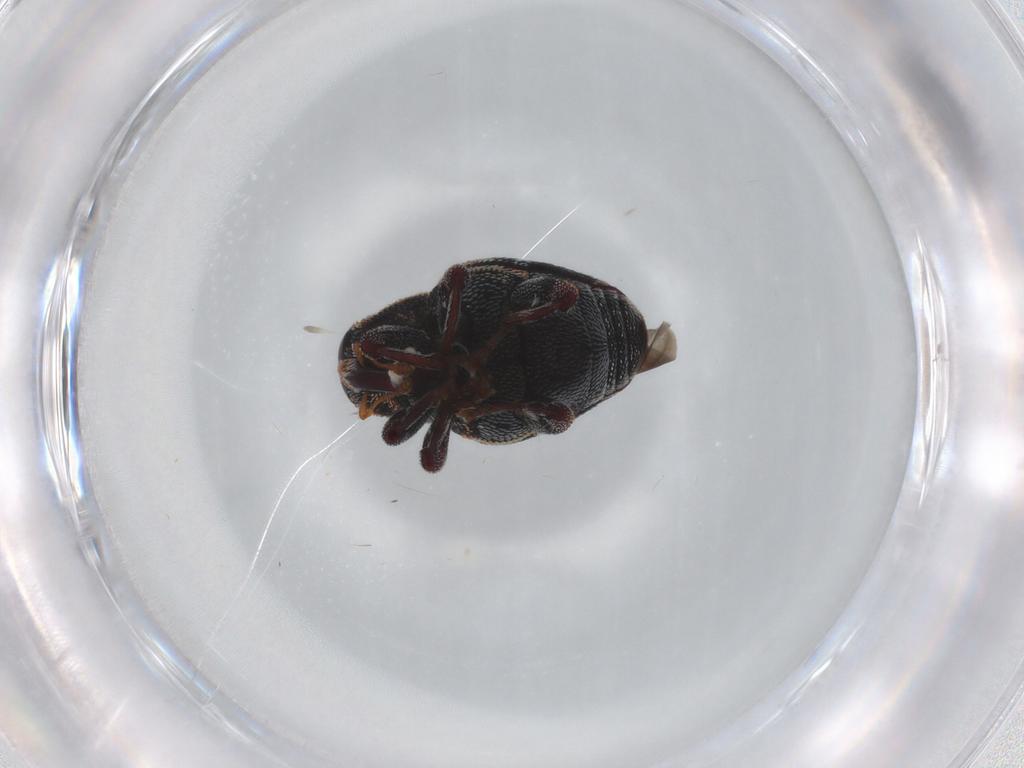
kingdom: Animalia
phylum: Arthropoda
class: Insecta
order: Coleoptera
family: Curculionidae
